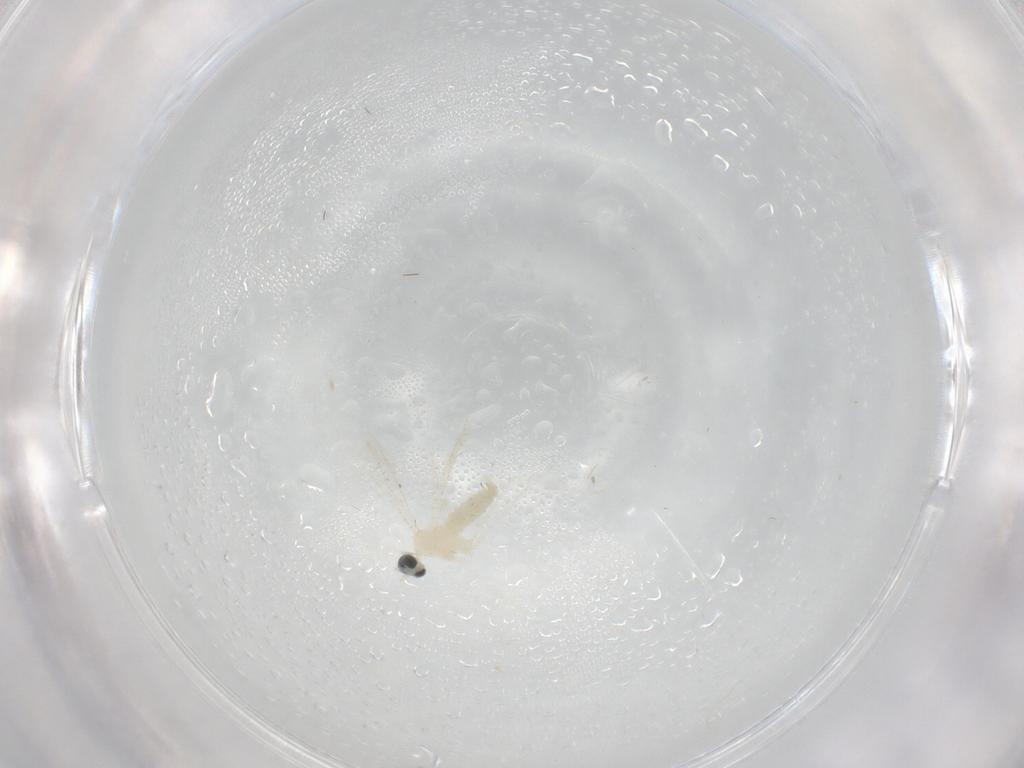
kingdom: Animalia
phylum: Arthropoda
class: Insecta
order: Diptera
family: Cecidomyiidae
